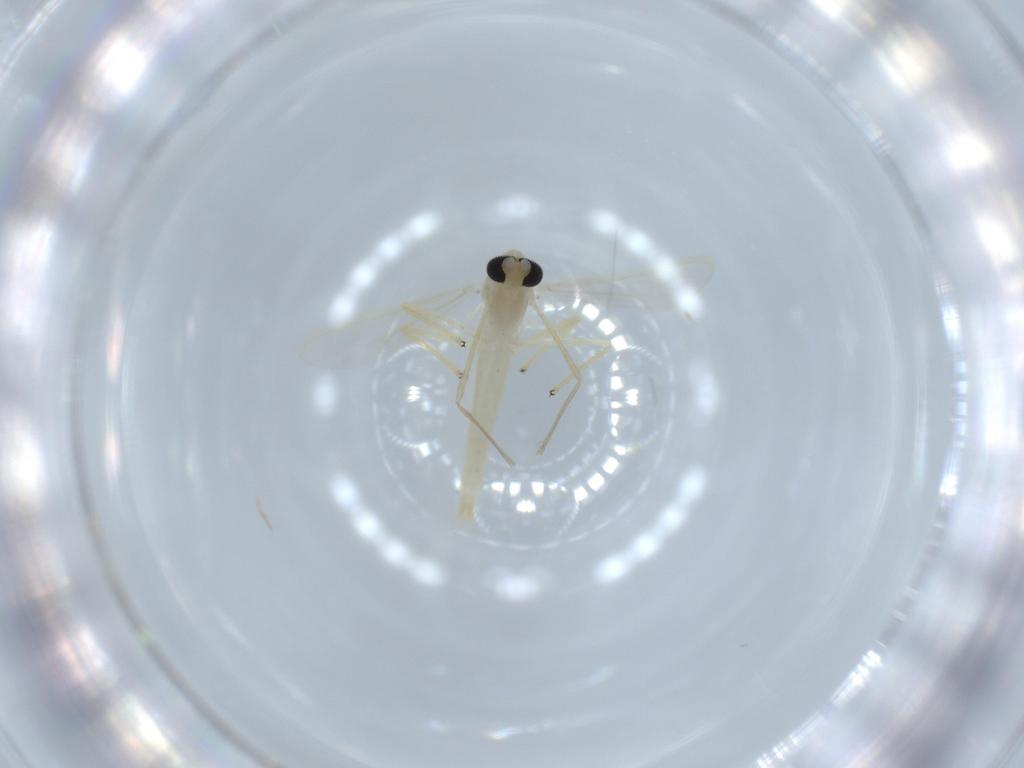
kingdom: Animalia
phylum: Arthropoda
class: Insecta
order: Diptera
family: Chironomidae
